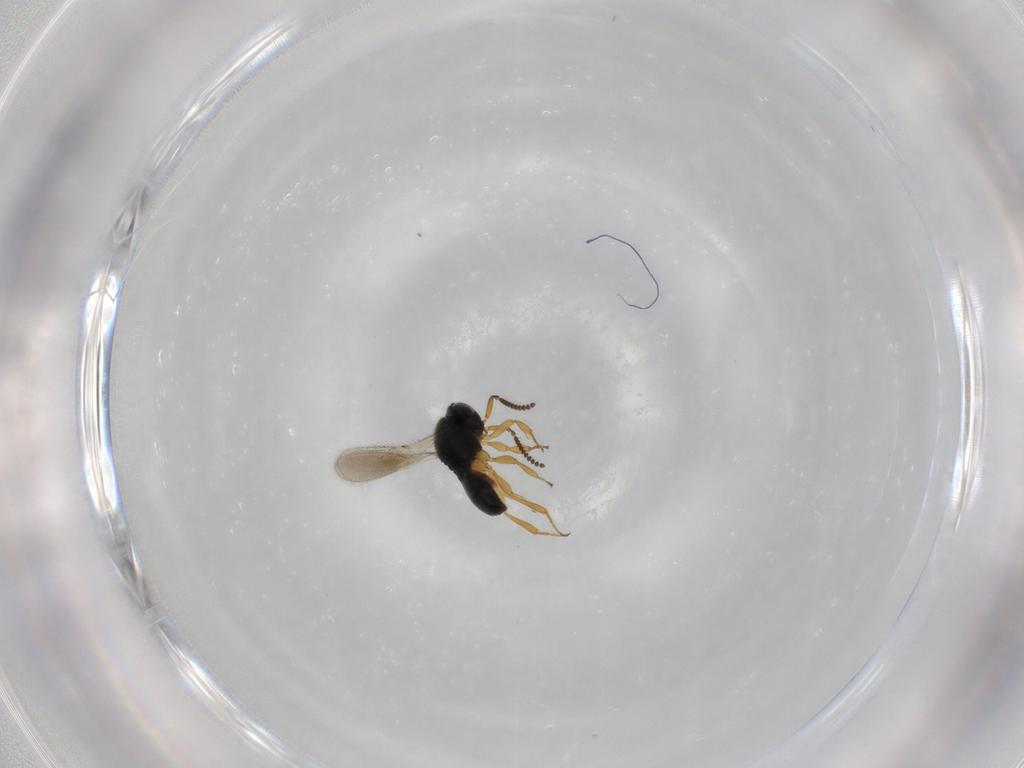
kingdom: Animalia
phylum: Arthropoda
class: Insecta
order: Hymenoptera
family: Scelionidae
